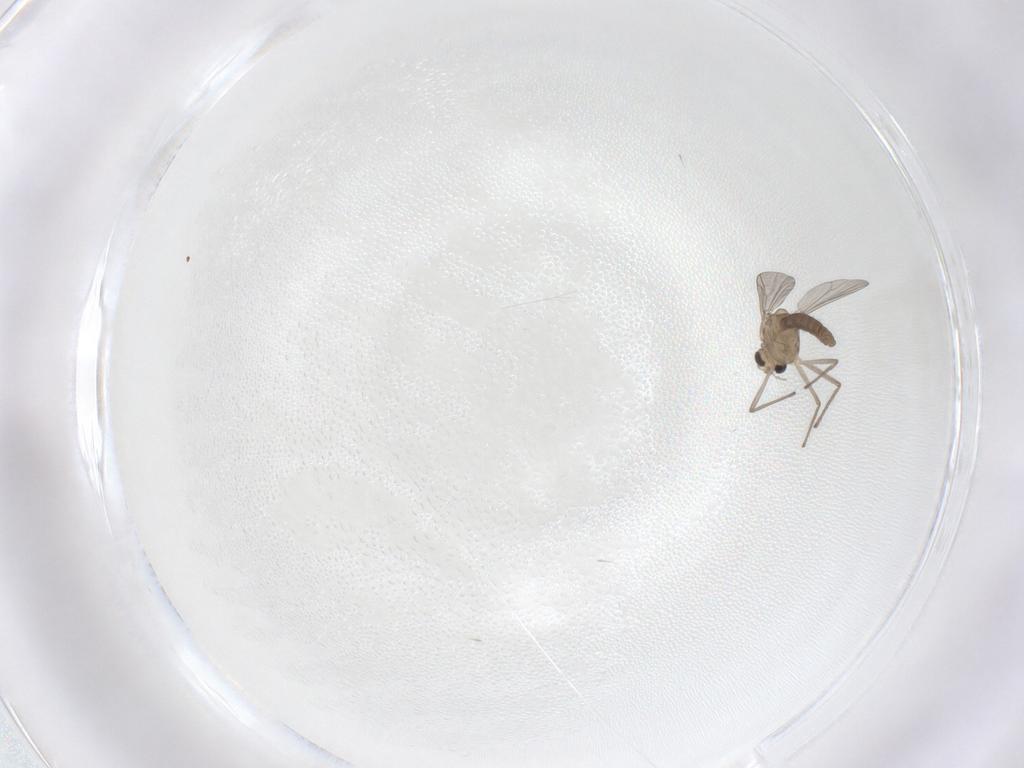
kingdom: Animalia
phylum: Arthropoda
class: Insecta
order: Diptera
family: Chironomidae
